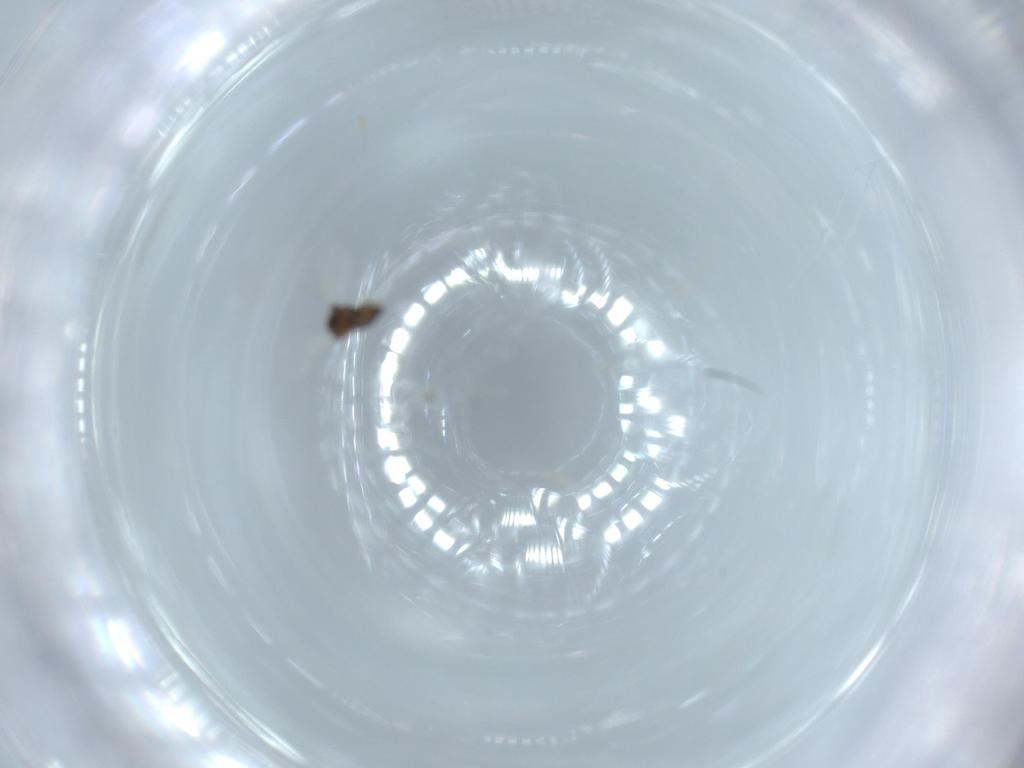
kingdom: Animalia
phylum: Arthropoda
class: Insecta
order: Diptera
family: Chironomidae
